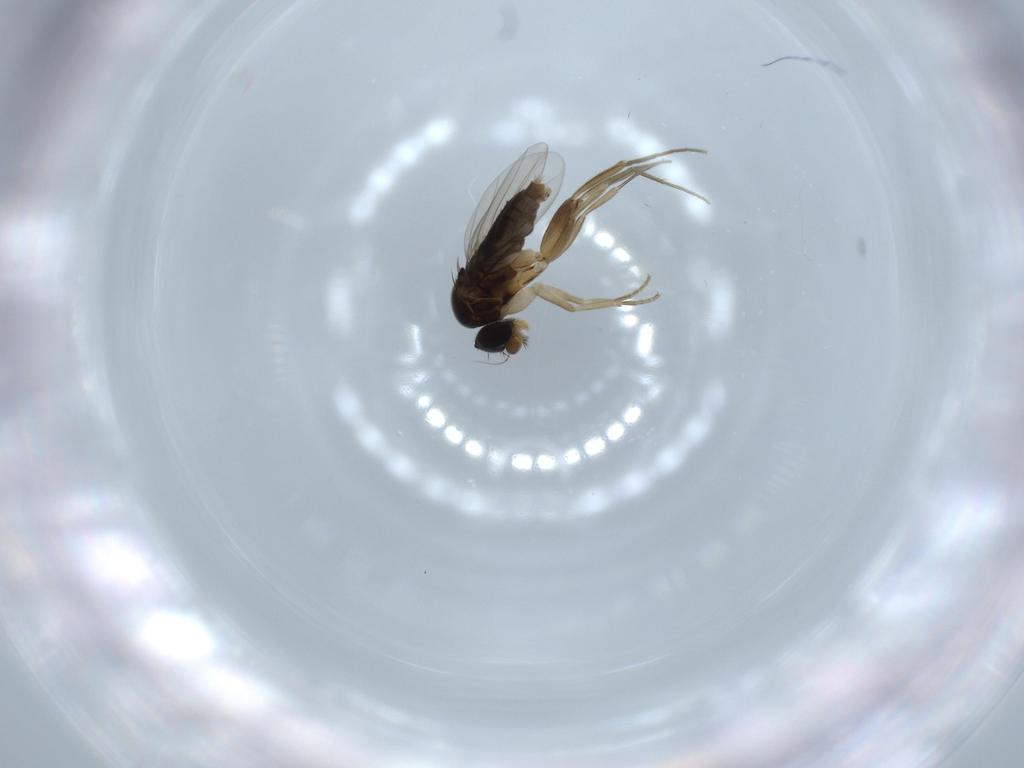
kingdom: Animalia
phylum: Arthropoda
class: Insecta
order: Diptera
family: Phoridae
